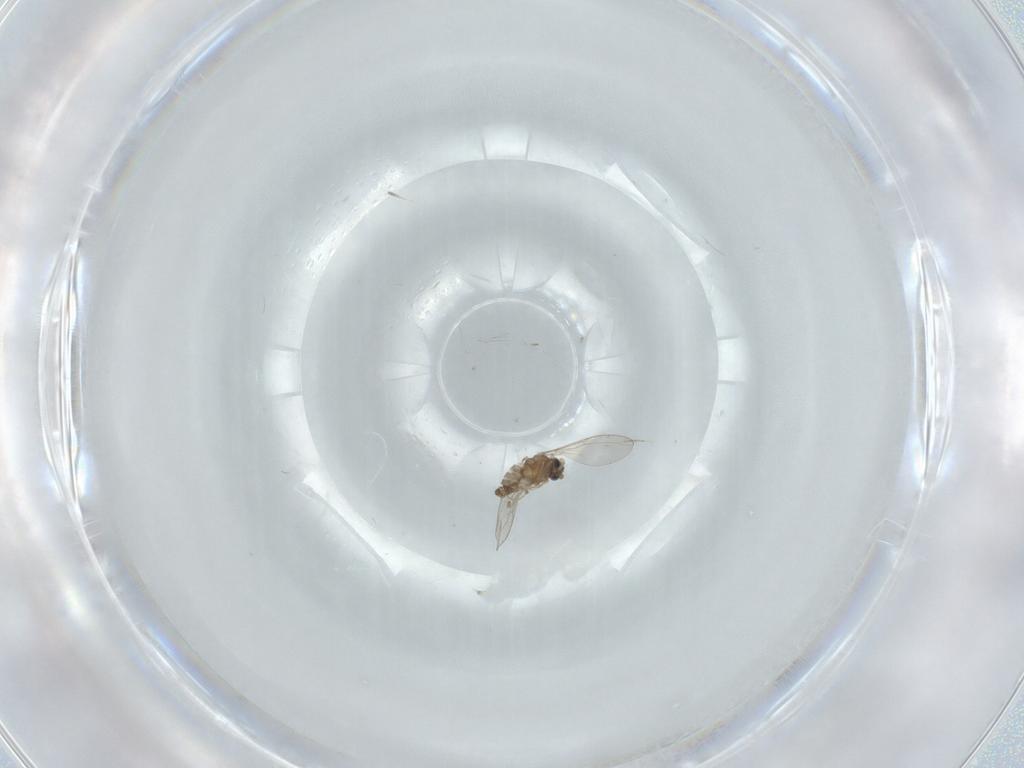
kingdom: Animalia
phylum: Arthropoda
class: Insecta
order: Diptera
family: Cecidomyiidae
